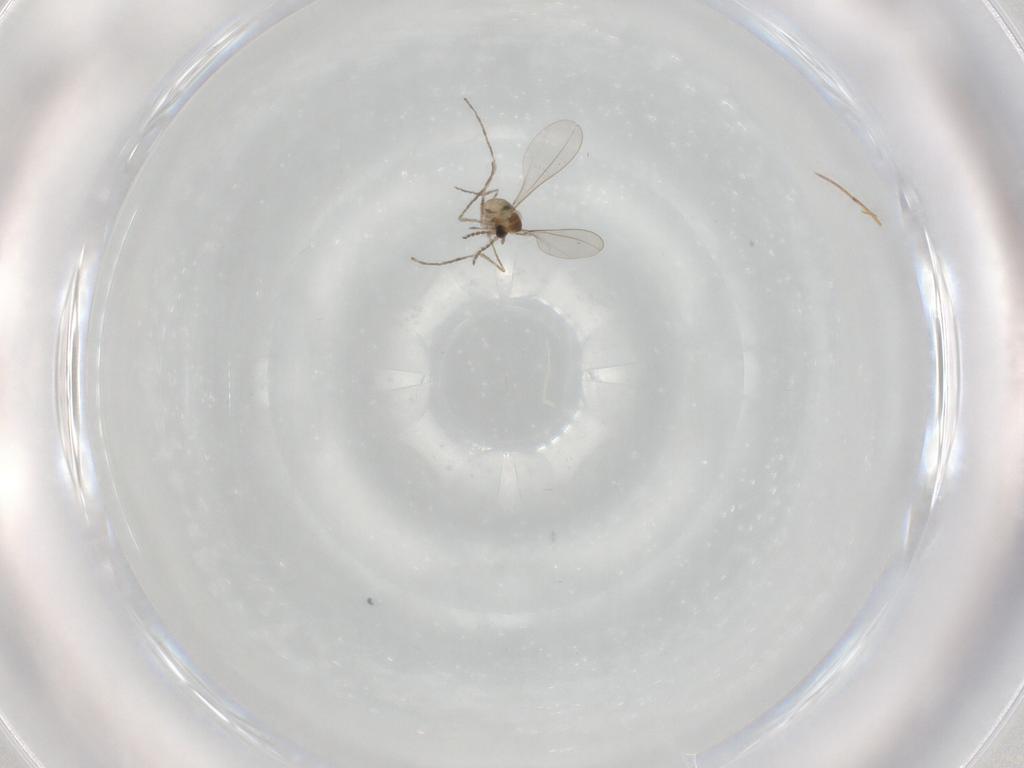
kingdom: Animalia
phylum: Arthropoda
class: Insecta
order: Diptera
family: Cecidomyiidae
